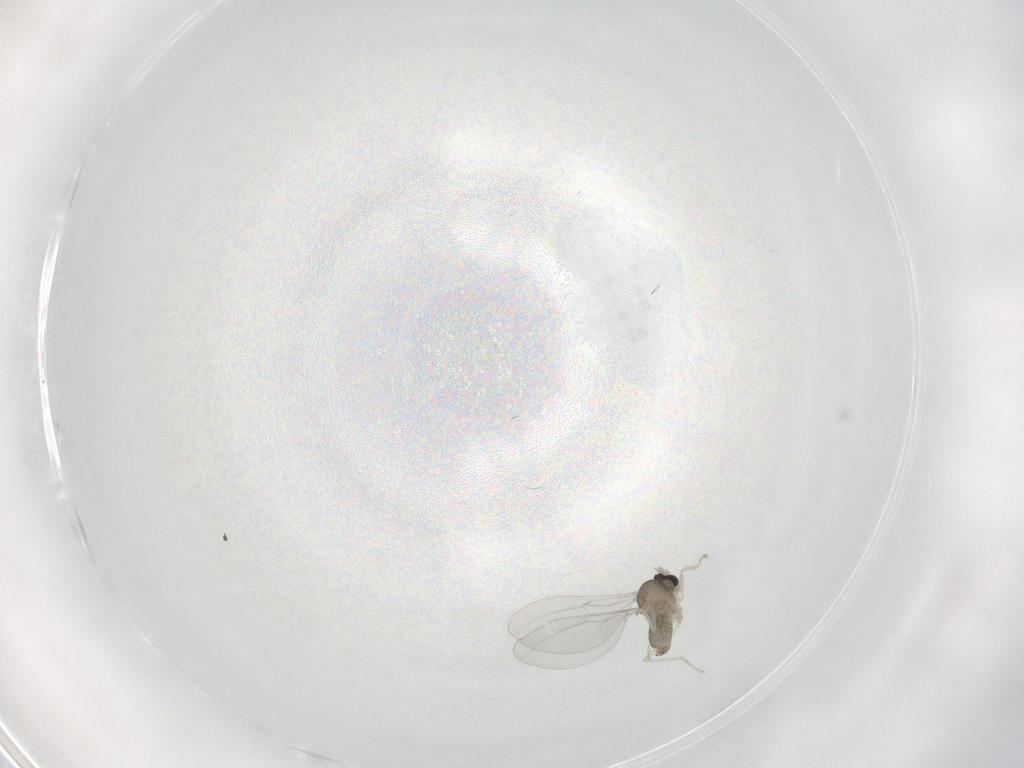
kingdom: Animalia
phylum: Arthropoda
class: Insecta
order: Diptera
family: Cecidomyiidae
